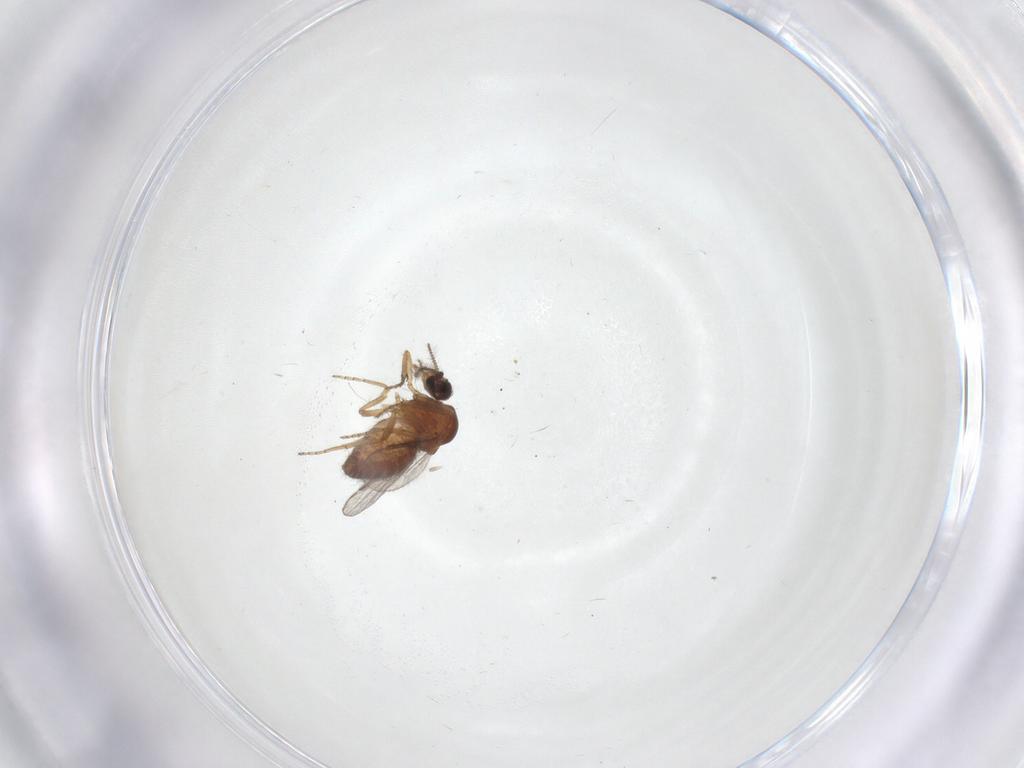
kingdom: Animalia
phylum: Arthropoda
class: Insecta
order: Diptera
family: Ceratopogonidae
